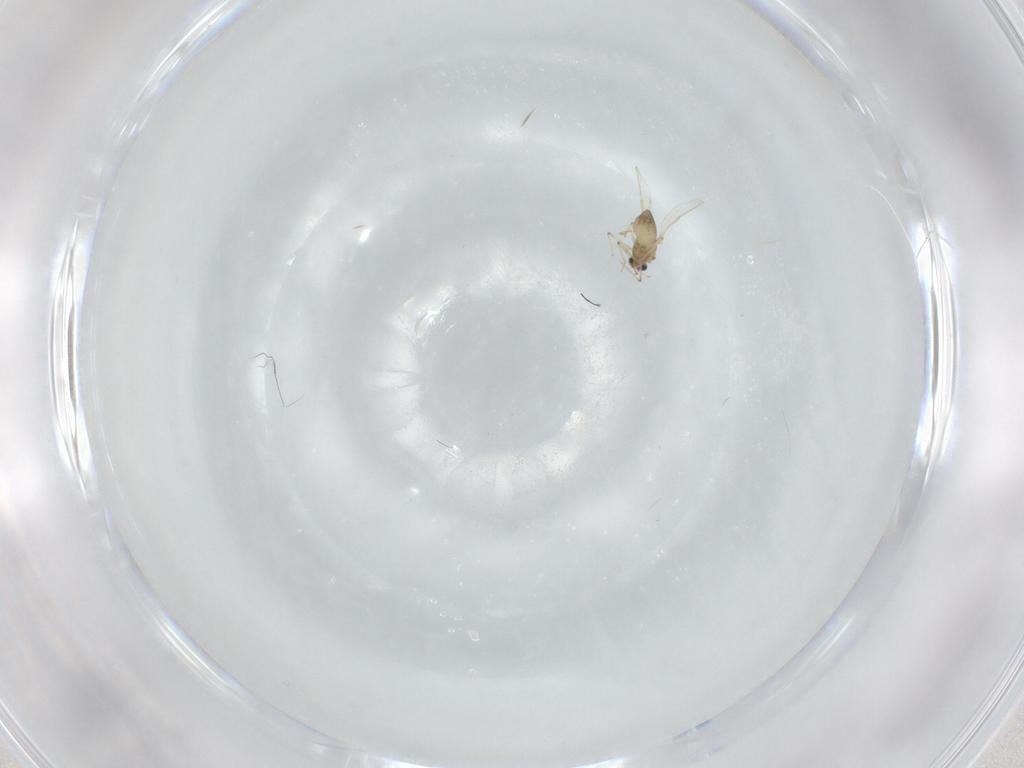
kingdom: Animalia
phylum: Arthropoda
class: Insecta
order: Diptera
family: Chironomidae
